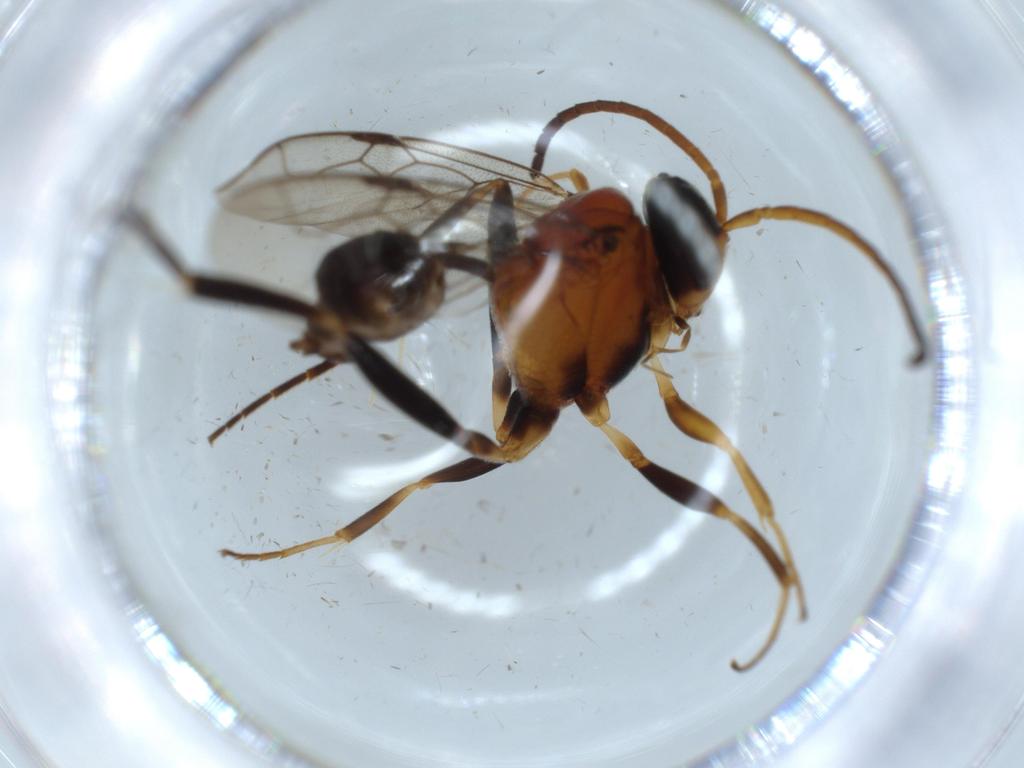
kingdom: Animalia
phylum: Arthropoda
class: Insecta
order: Hymenoptera
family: Evaniidae
